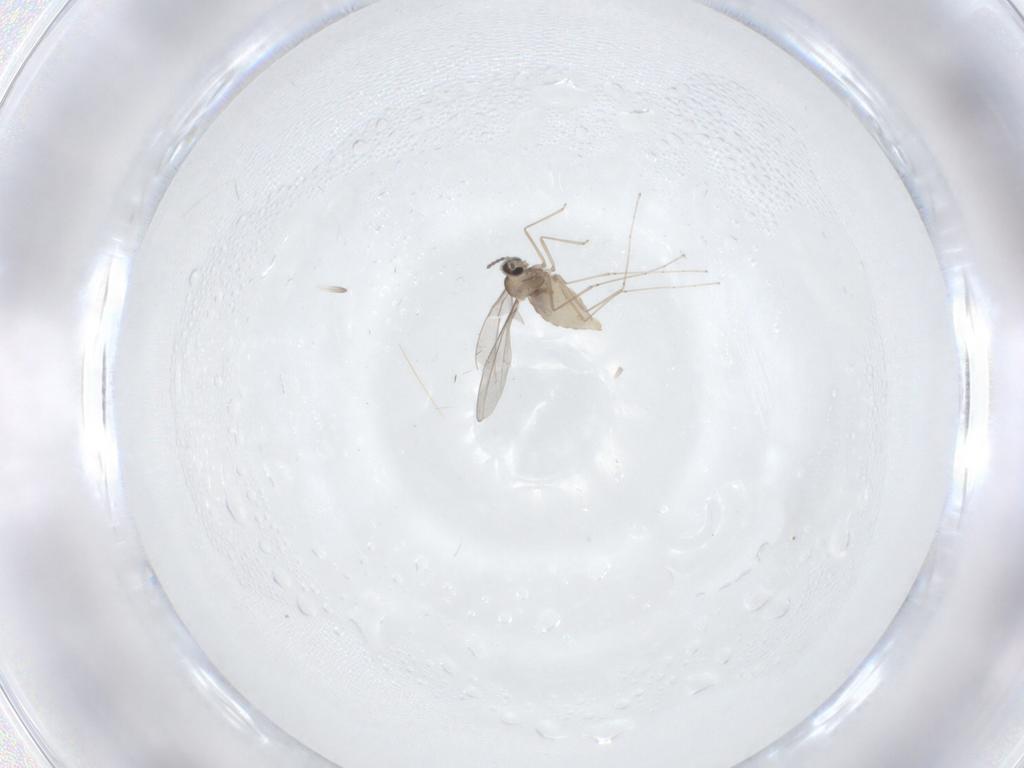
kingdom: Animalia
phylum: Arthropoda
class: Insecta
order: Diptera
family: Cecidomyiidae
